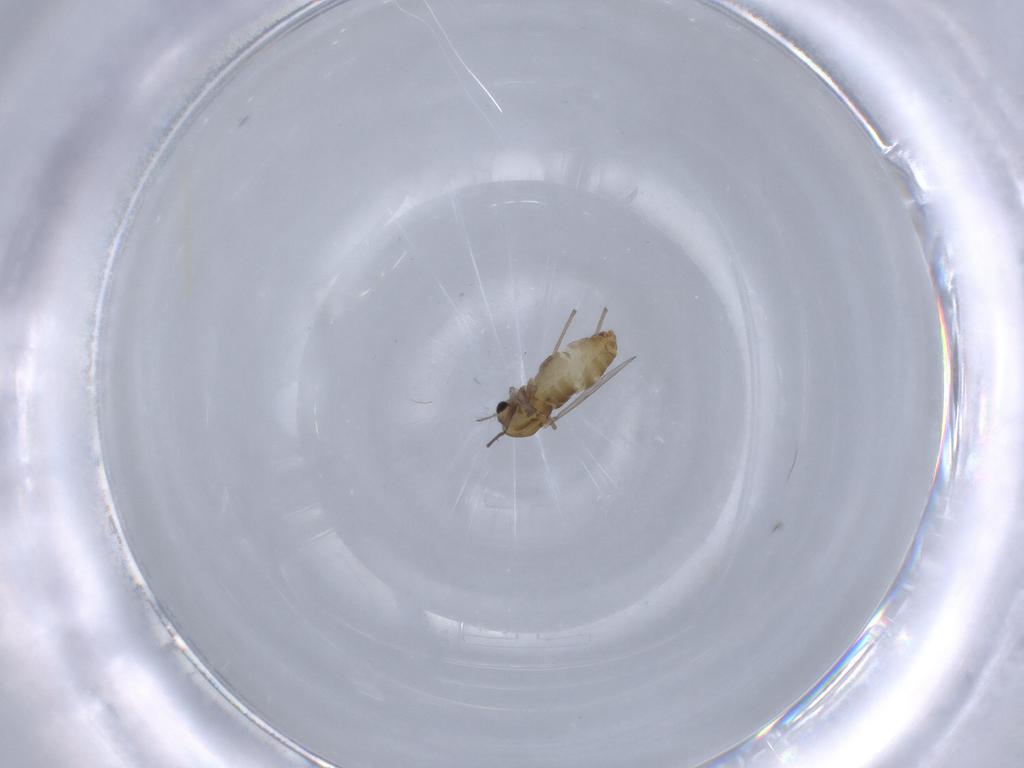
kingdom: Animalia
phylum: Arthropoda
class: Insecta
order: Diptera
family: Chironomidae
